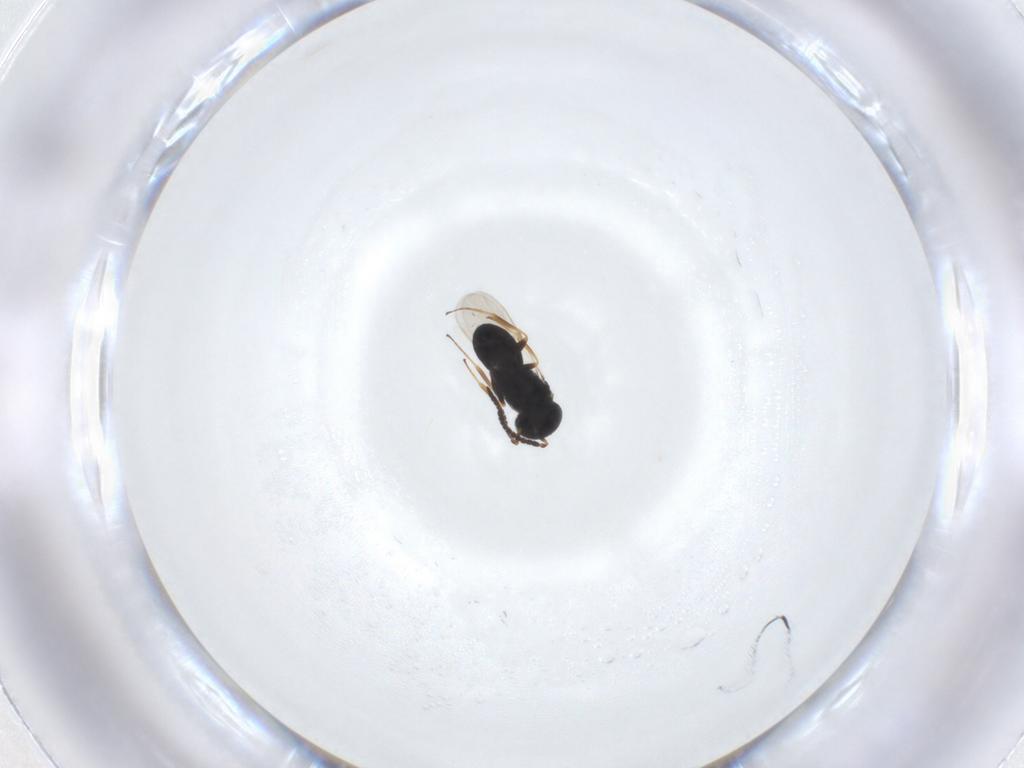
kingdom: Animalia
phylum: Arthropoda
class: Insecta
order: Hymenoptera
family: Scelionidae
